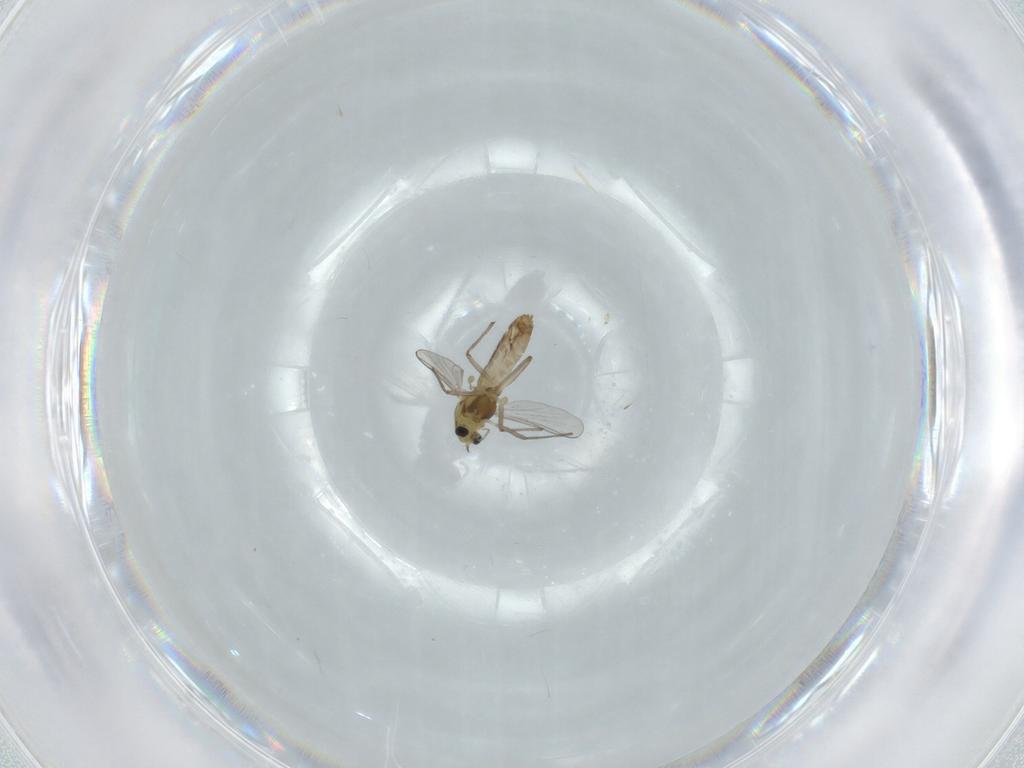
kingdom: Animalia
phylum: Arthropoda
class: Insecta
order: Diptera
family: Chironomidae
